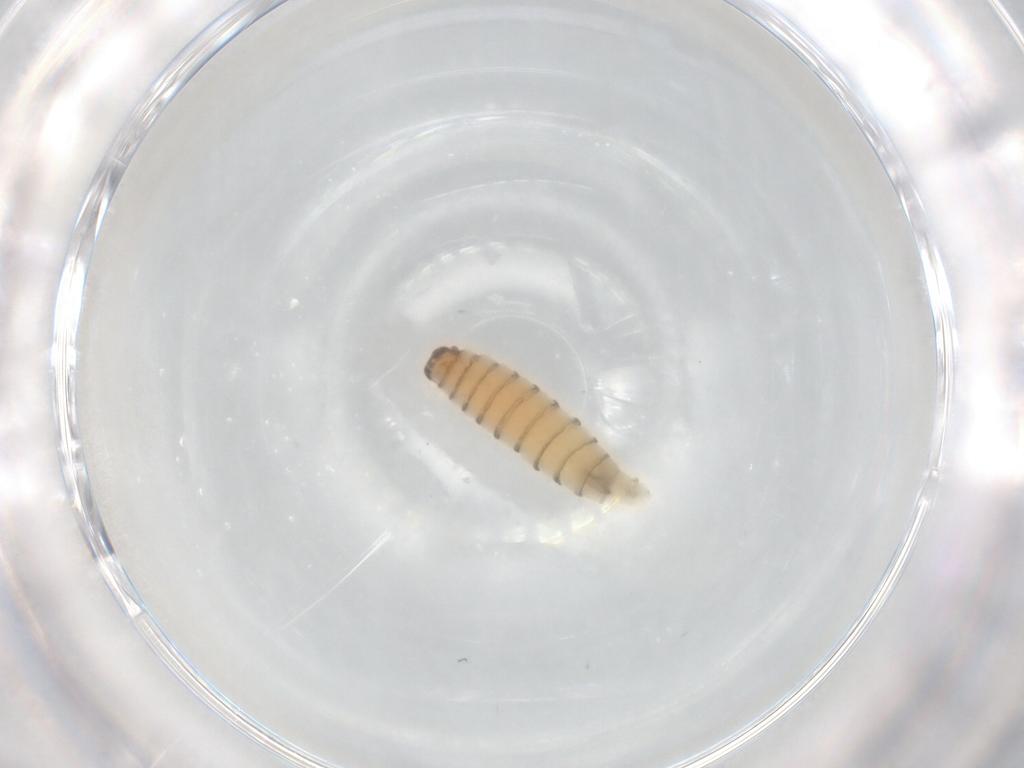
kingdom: Animalia
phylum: Arthropoda
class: Insecta
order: Diptera
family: Sarcophagidae
